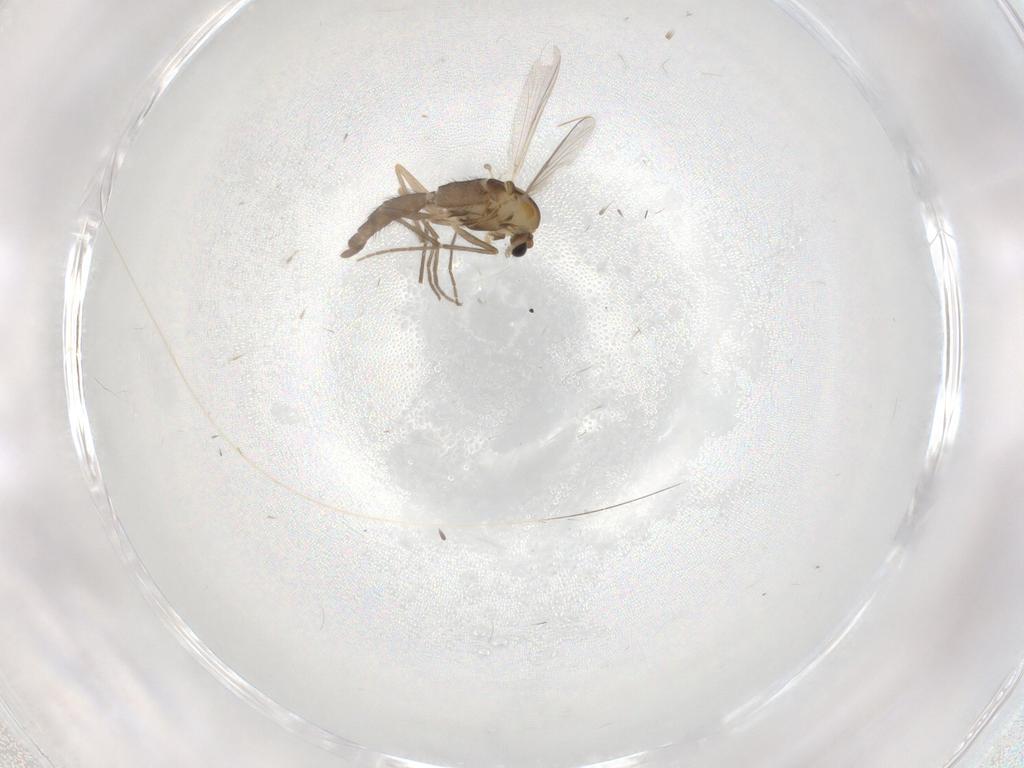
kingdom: Animalia
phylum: Arthropoda
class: Insecta
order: Diptera
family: Chironomidae
